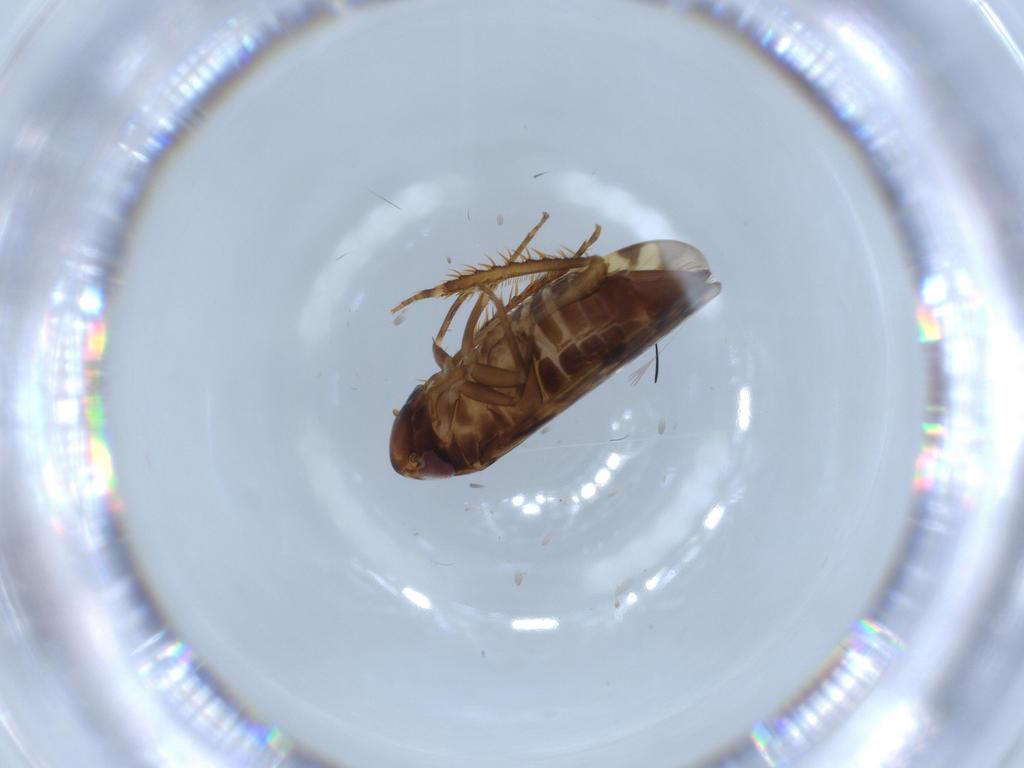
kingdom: Animalia
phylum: Arthropoda
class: Insecta
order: Hemiptera
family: Cicadellidae
